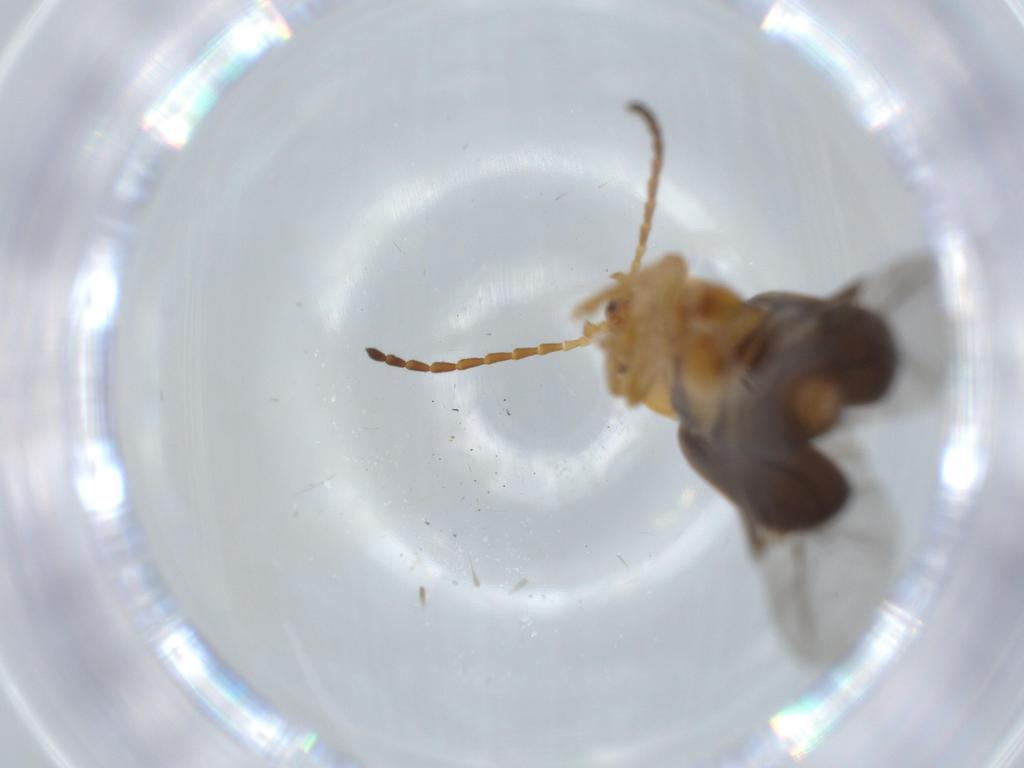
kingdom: Animalia
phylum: Arthropoda
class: Insecta
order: Coleoptera
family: Chrysomelidae
